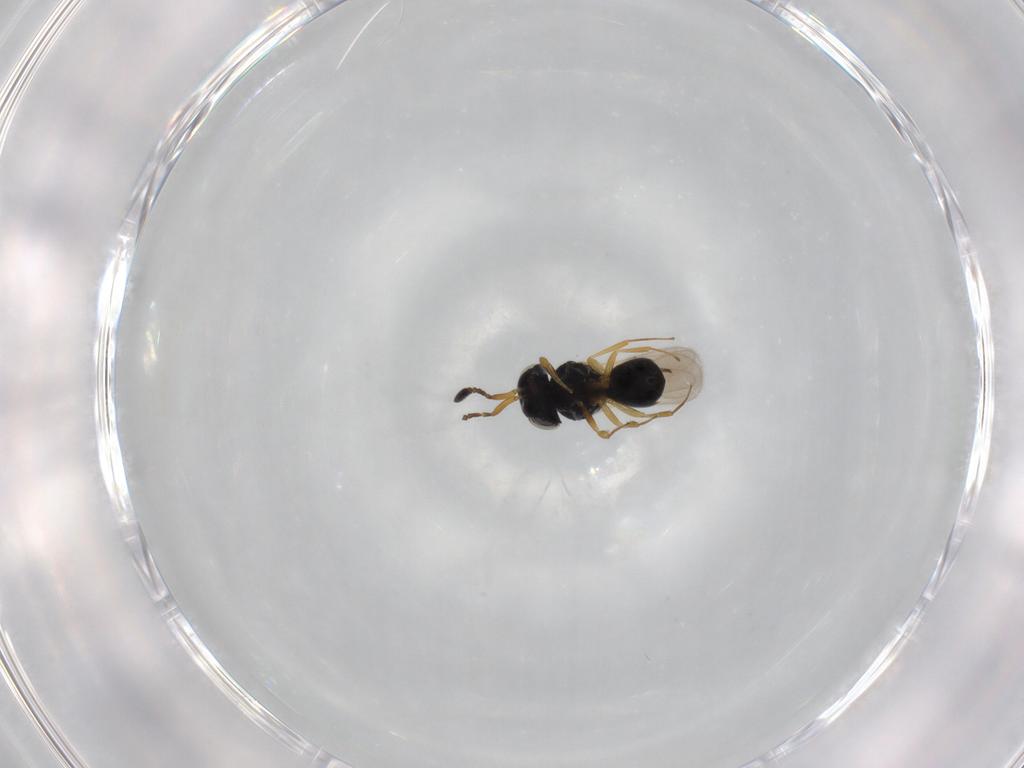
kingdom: Animalia
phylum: Arthropoda
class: Insecta
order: Hymenoptera
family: Scelionidae
